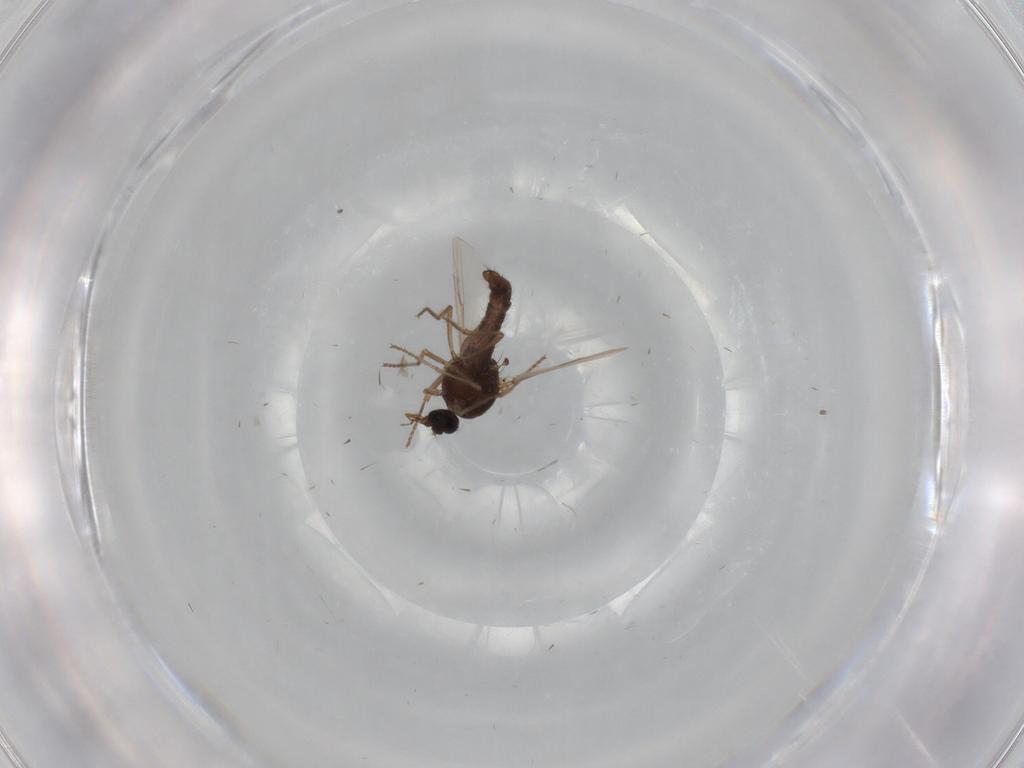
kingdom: Animalia
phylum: Arthropoda
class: Insecta
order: Diptera
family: Ceratopogonidae
